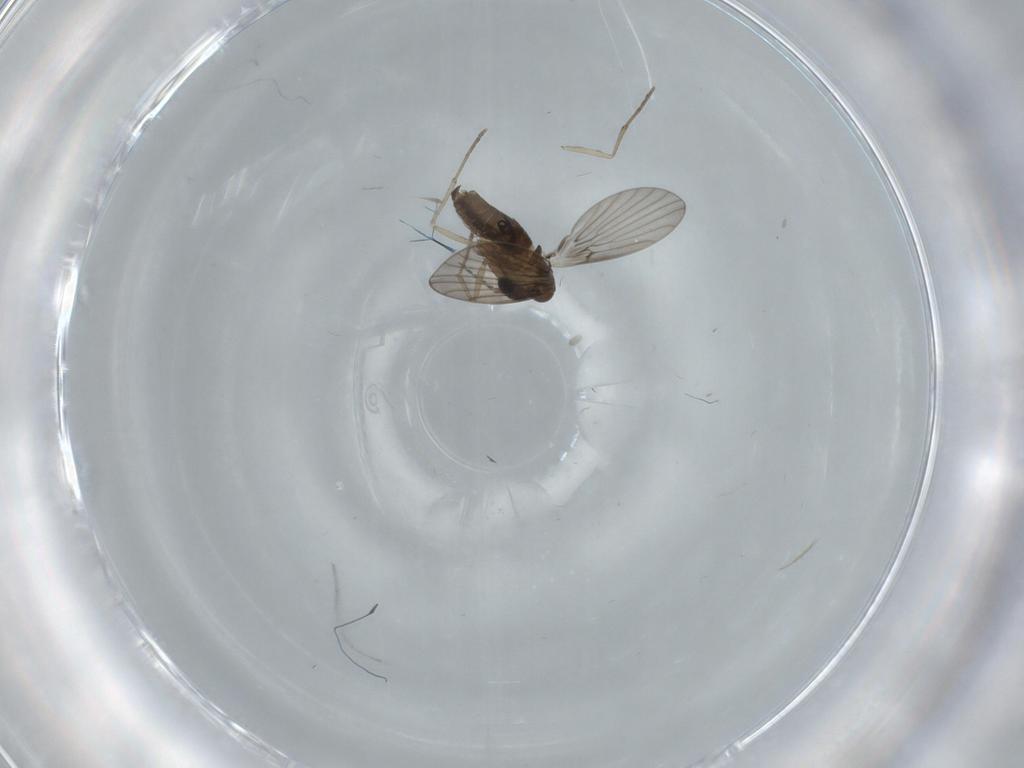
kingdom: Animalia
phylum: Arthropoda
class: Insecta
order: Diptera
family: Psychodidae
